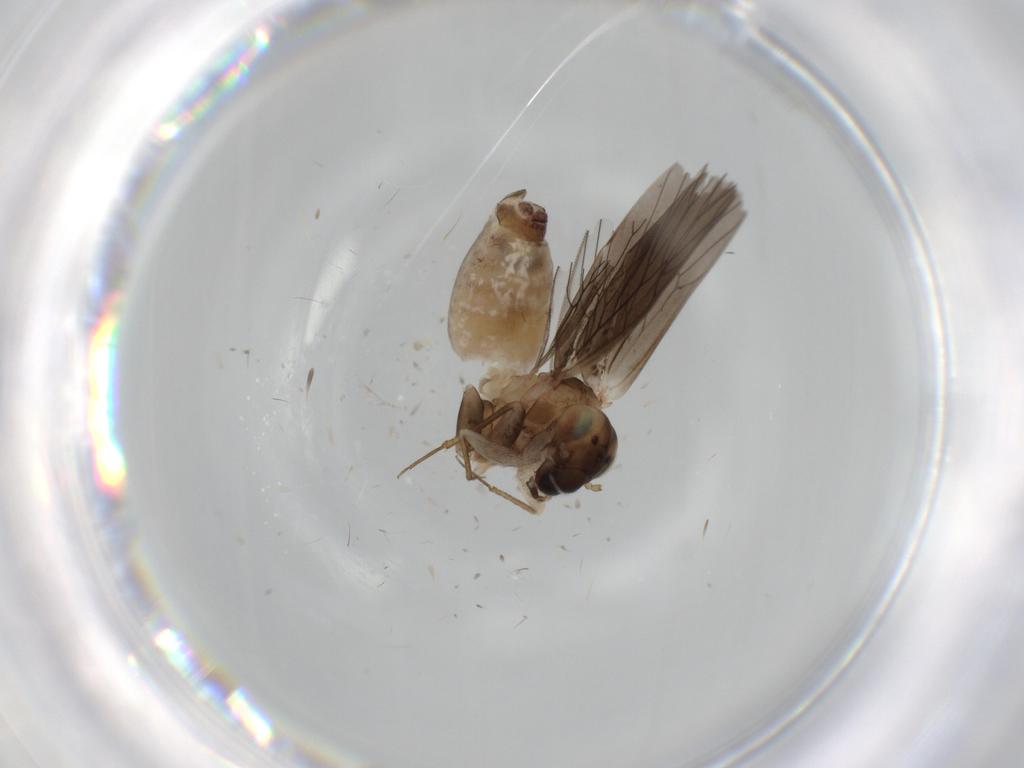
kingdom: Animalia
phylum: Arthropoda
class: Insecta
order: Psocodea
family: Lepidopsocidae
